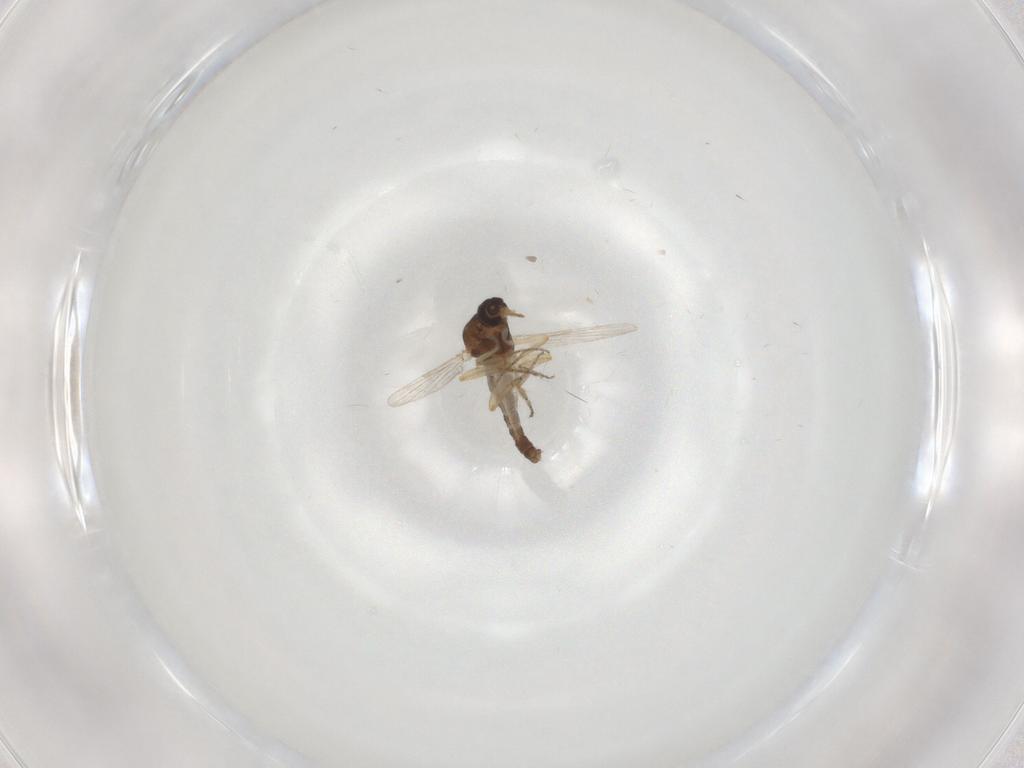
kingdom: Animalia
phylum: Arthropoda
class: Insecta
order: Diptera
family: Ceratopogonidae
